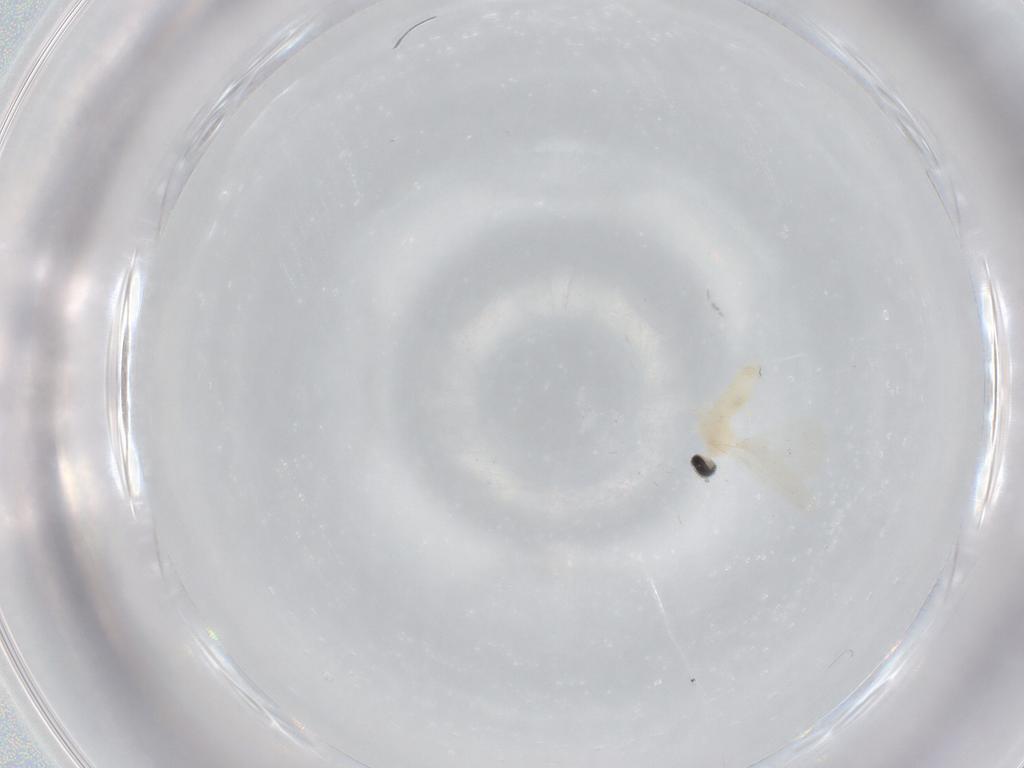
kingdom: Animalia
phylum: Arthropoda
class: Insecta
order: Diptera
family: Cecidomyiidae
